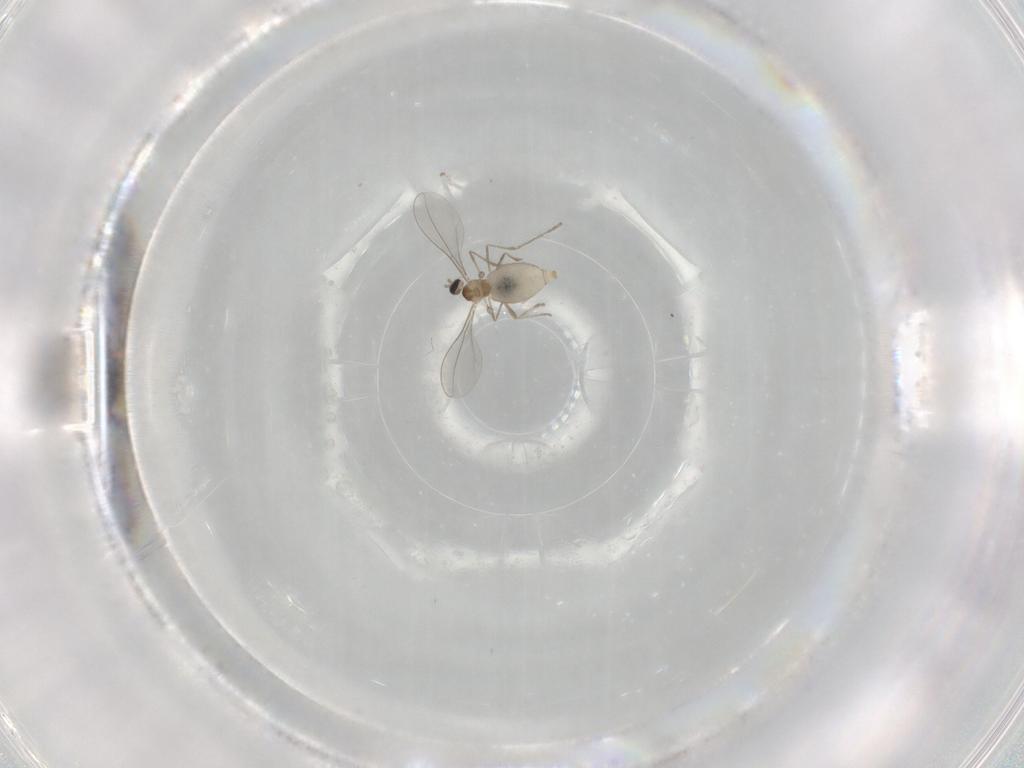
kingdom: Animalia
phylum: Arthropoda
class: Insecta
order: Diptera
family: Cecidomyiidae
